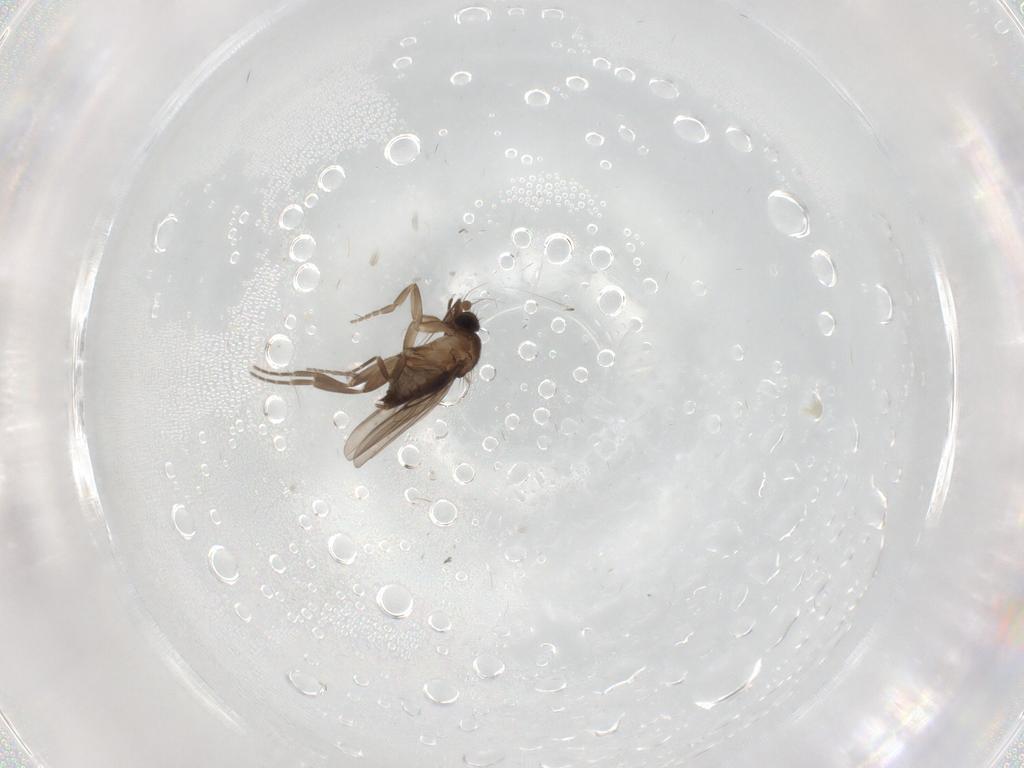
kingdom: Animalia
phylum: Arthropoda
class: Insecta
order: Diptera
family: Phoridae
